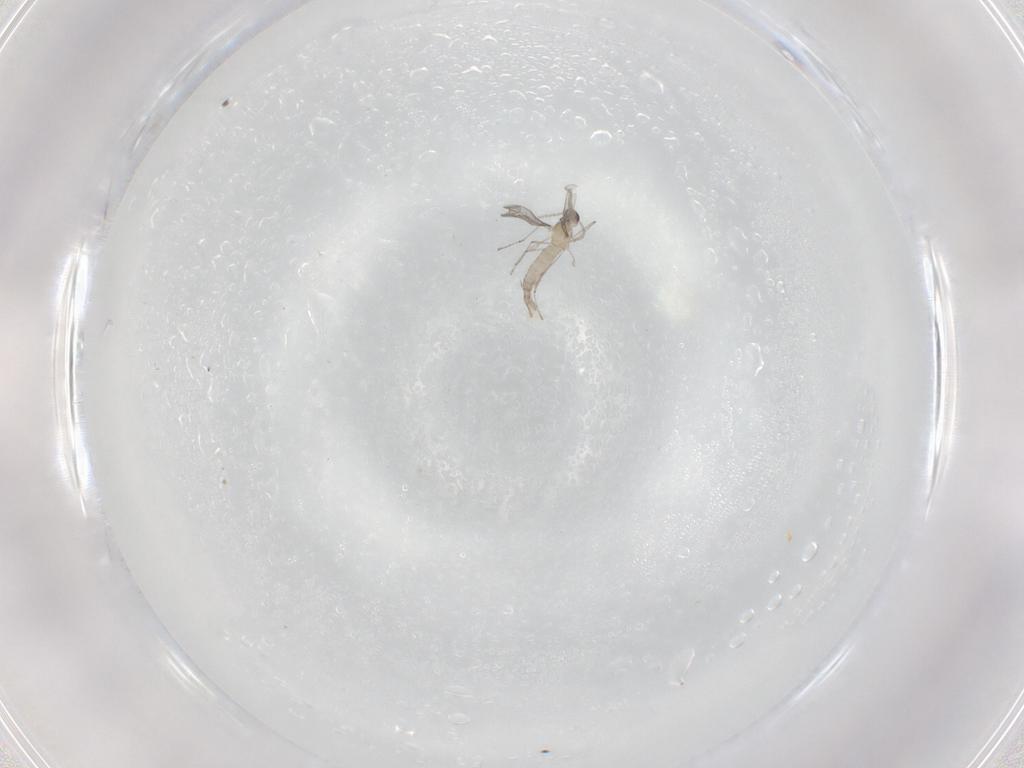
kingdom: Animalia
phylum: Arthropoda
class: Insecta
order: Diptera
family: Cecidomyiidae
